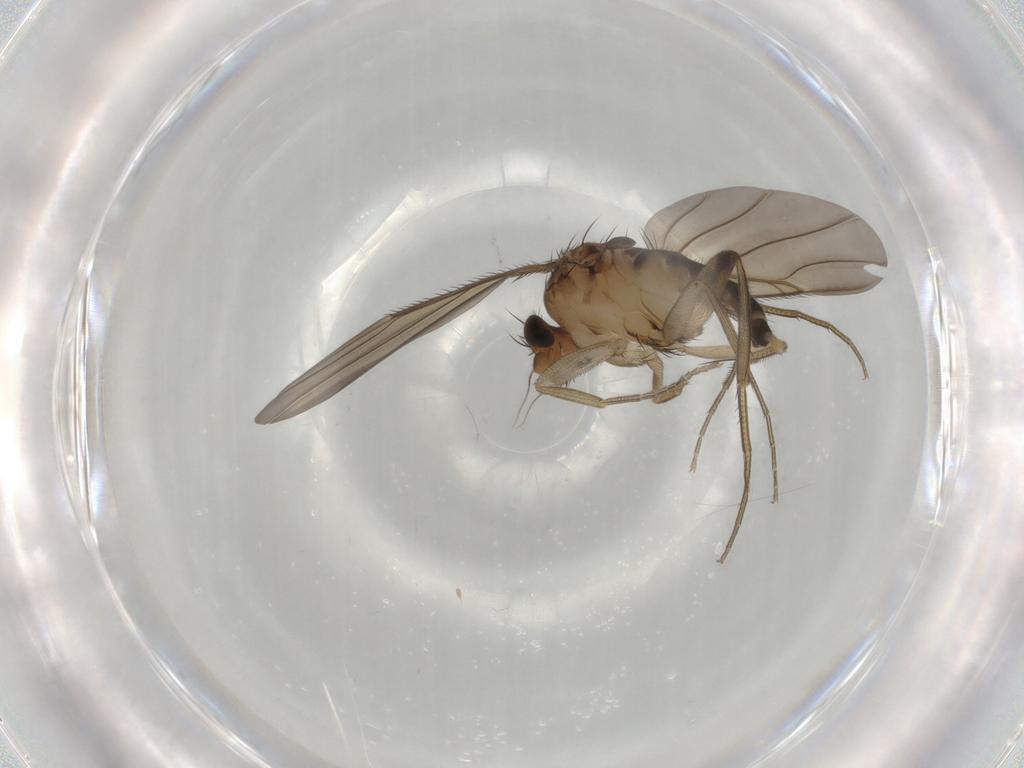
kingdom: Animalia
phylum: Arthropoda
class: Insecta
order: Diptera
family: Phoridae
